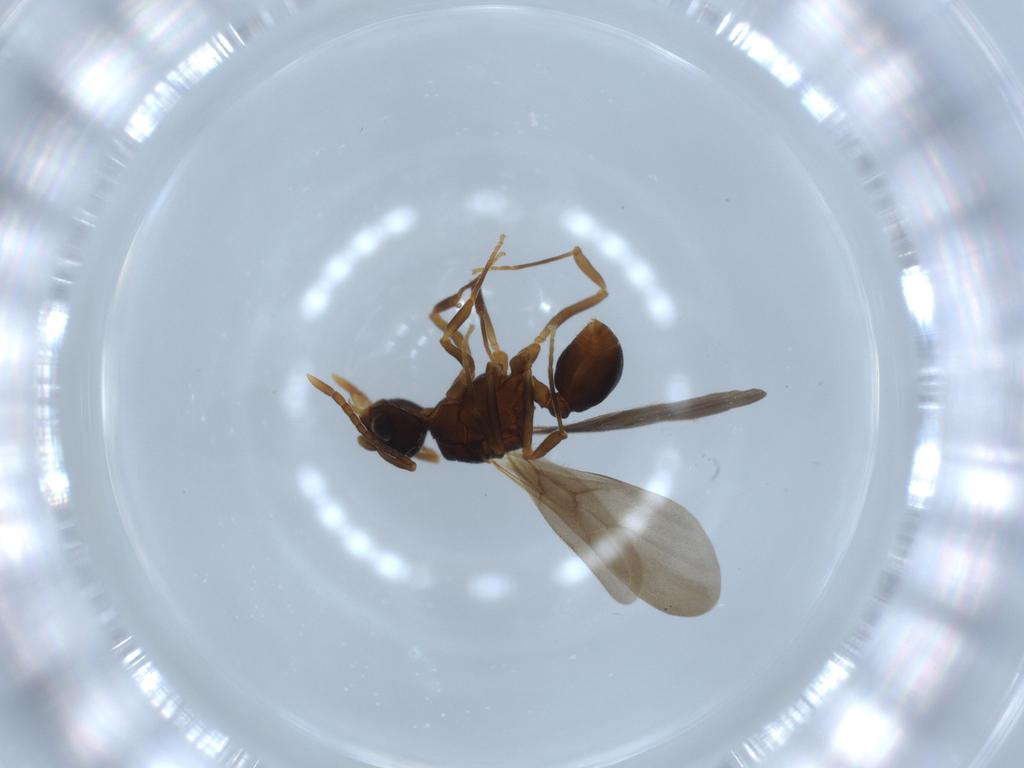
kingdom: Animalia
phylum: Arthropoda
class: Insecta
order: Hymenoptera
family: Formicidae
